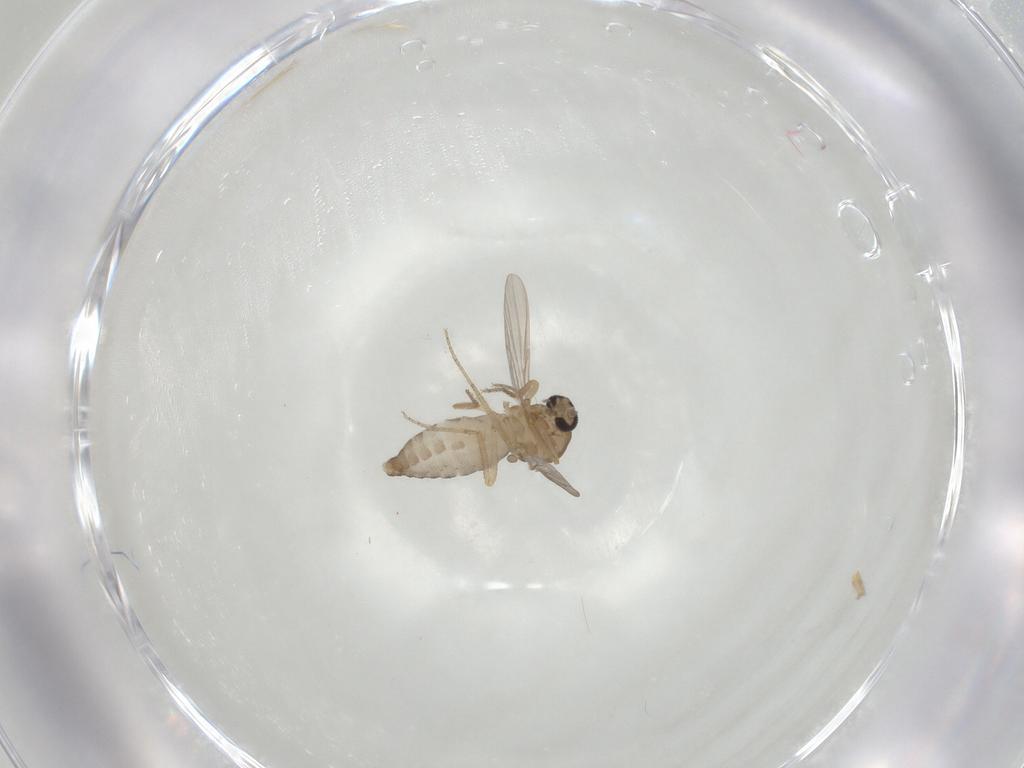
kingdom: Animalia
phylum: Arthropoda
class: Insecta
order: Diptera
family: Ceratopogonidae
